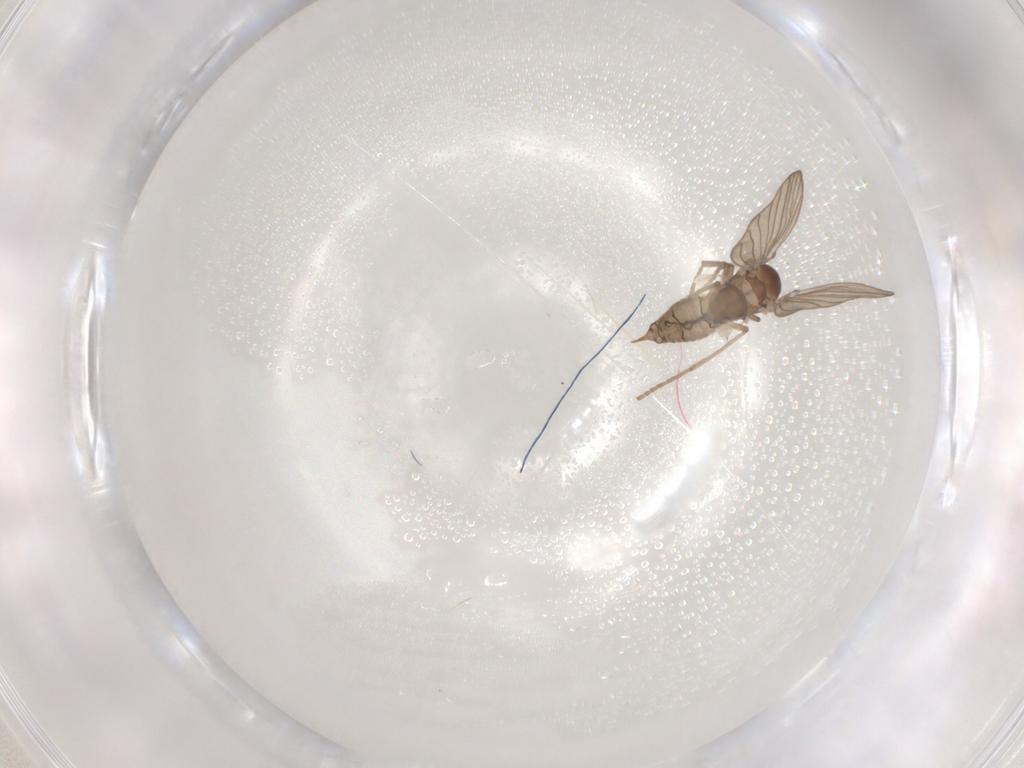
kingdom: Animalia
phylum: Arthropoda
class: Insecta
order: Diptera
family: Psychodidae
